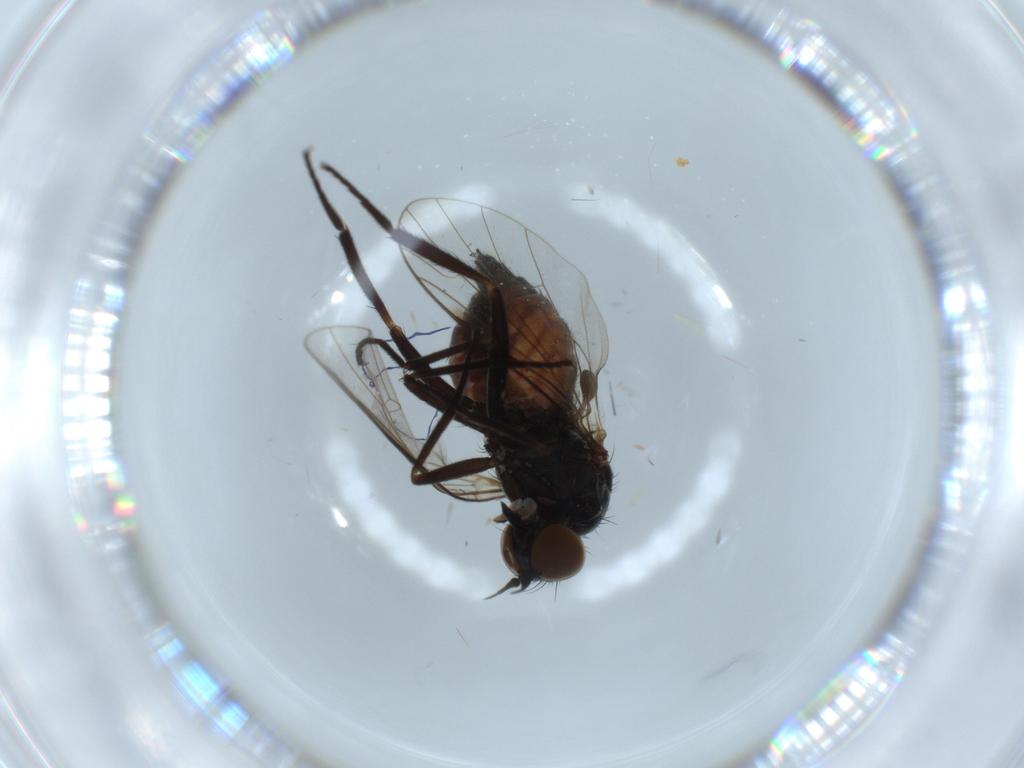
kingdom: Animalia
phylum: Arthropoda
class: Insecta
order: Diptera
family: Empididae
